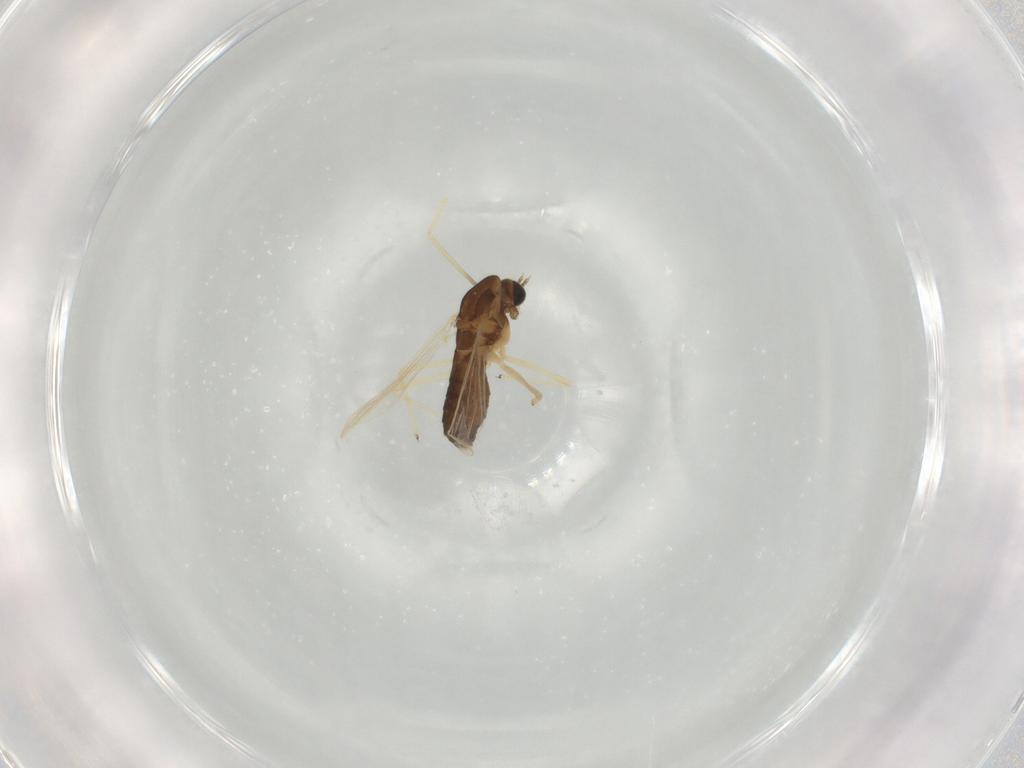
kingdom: Animalia
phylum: Arthropoda
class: Insecta
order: Diptera
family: Chironomidae
